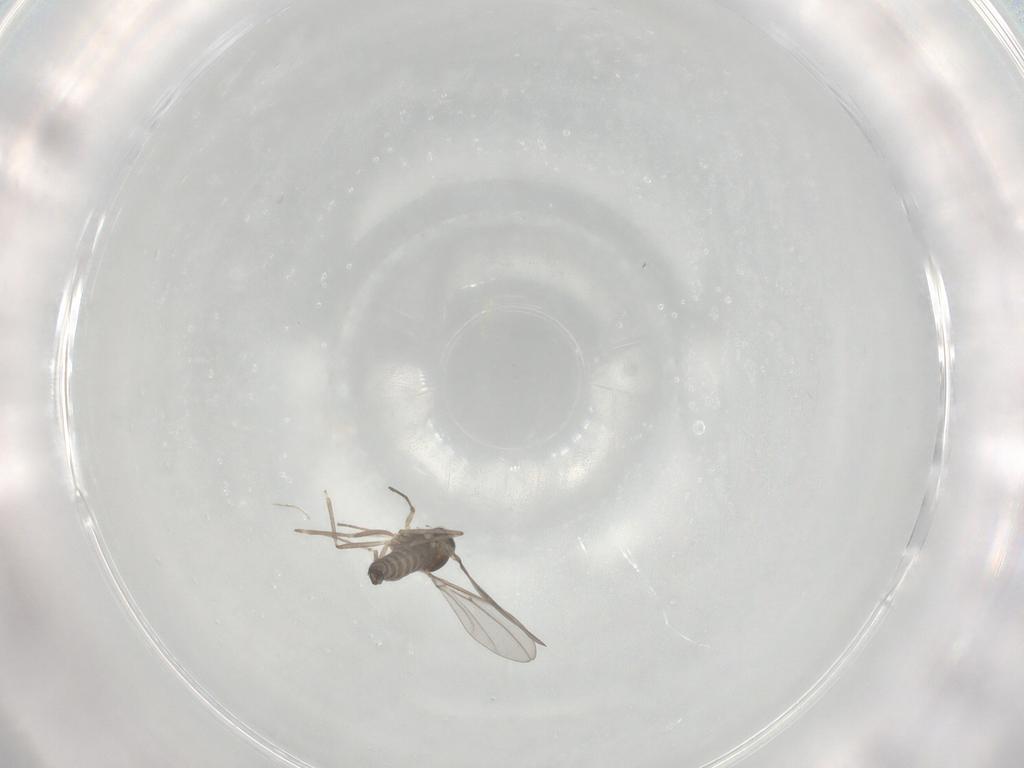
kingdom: Animalia
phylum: Arthropoda
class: Insecta
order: Diptera
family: Cecidomyiidae
